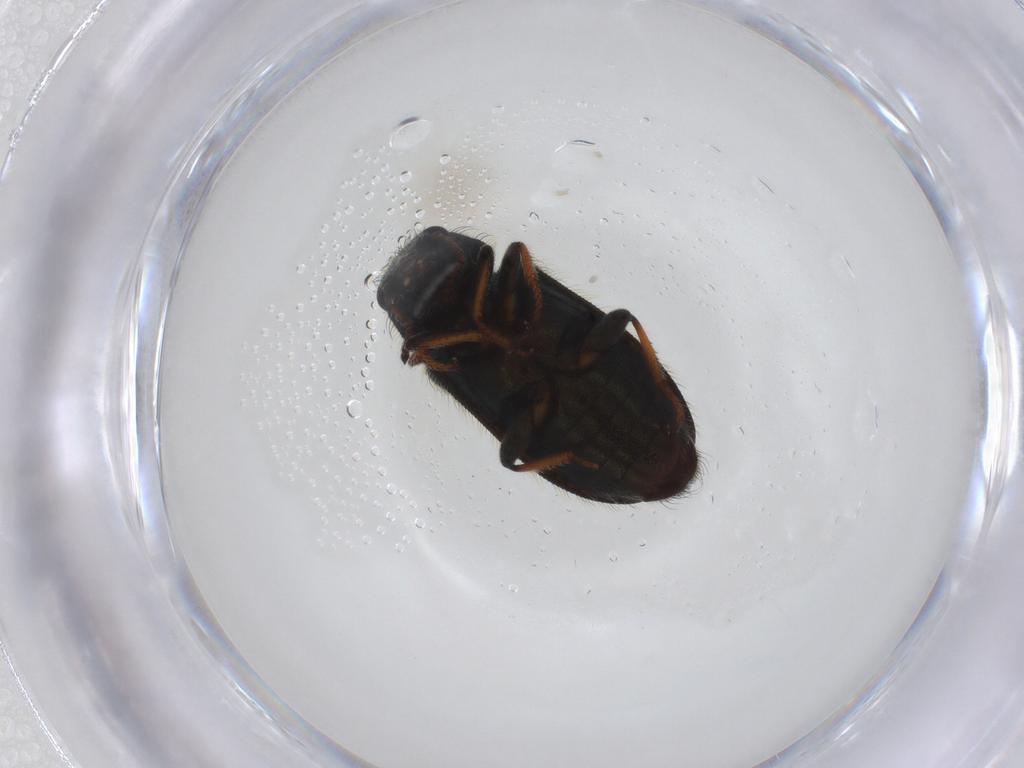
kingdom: Animalia
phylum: Arthropoda
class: Insecta
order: Coleoptera
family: Melyridae
